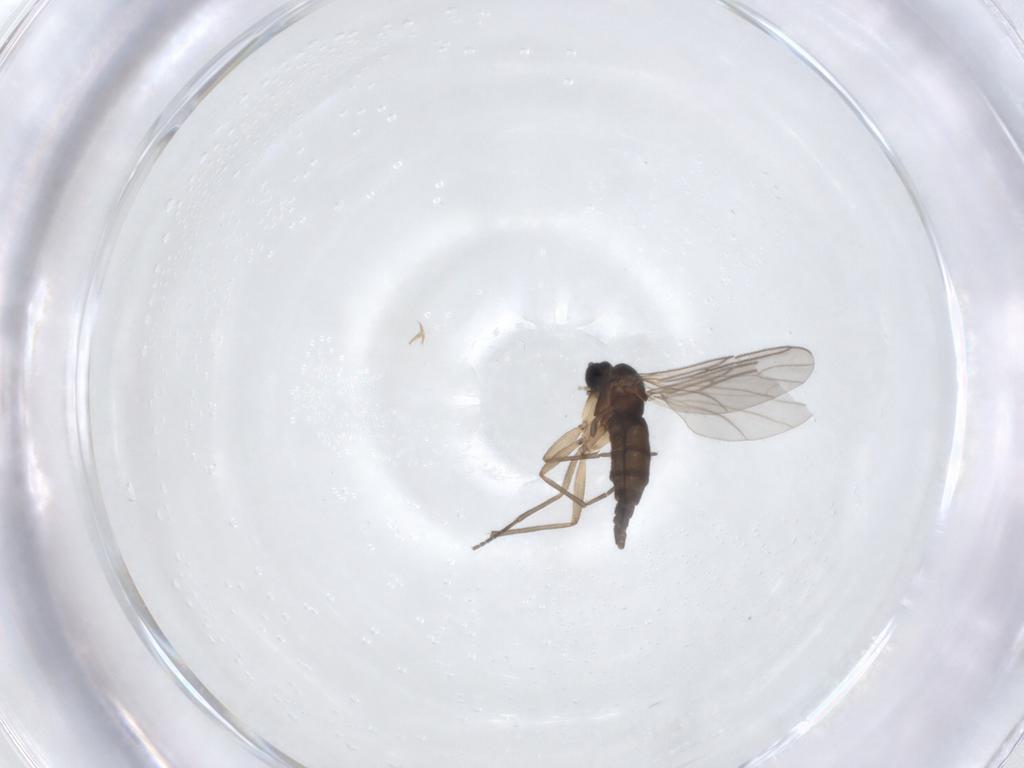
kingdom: Animalia
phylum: Arthropoda
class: Insecta
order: Diptera
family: Sciaridae
